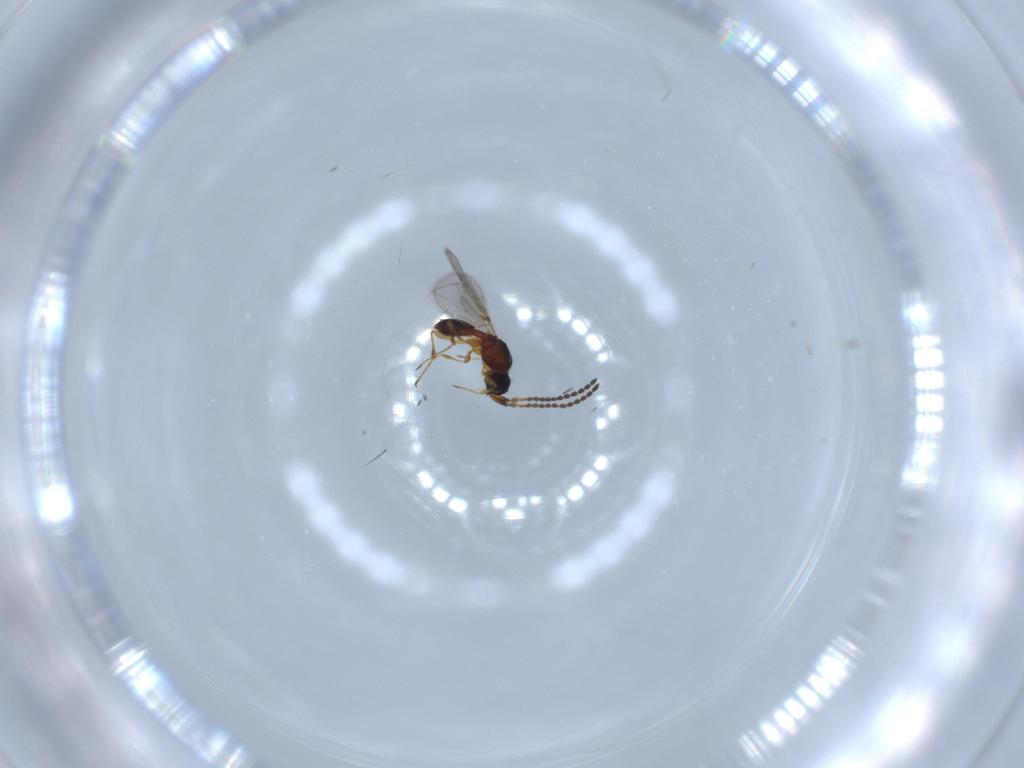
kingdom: Animalia
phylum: Arthropoda
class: Insecta
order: Hymenoptera
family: Diapriidae
